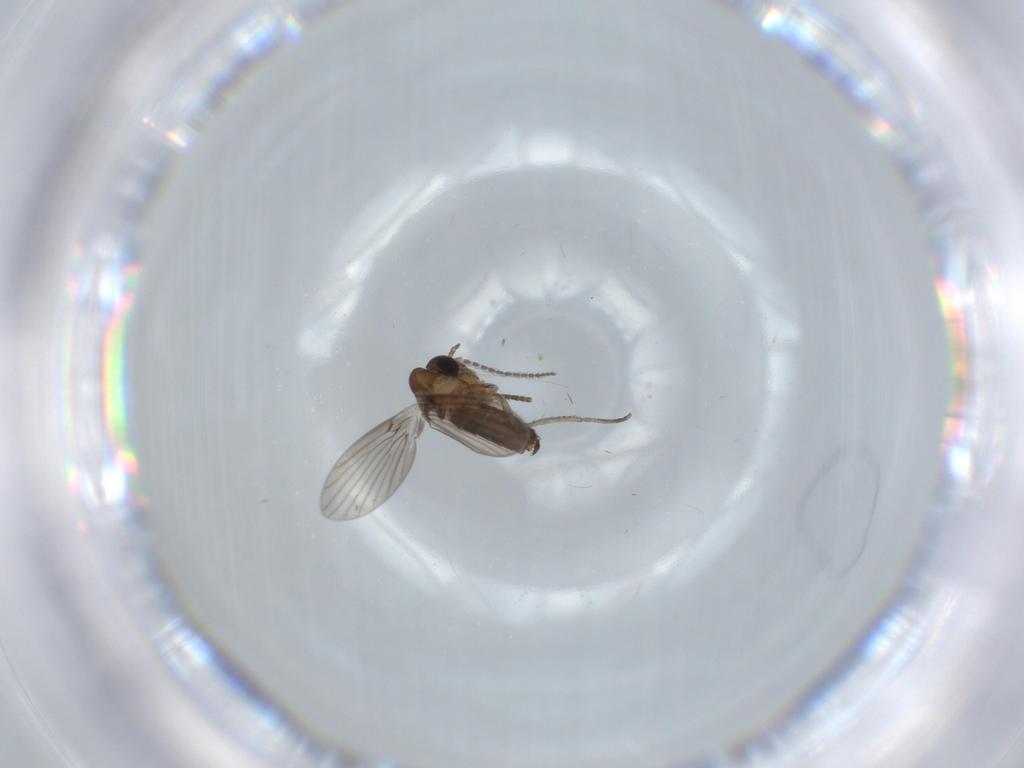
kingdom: Animalia
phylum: Arthropoda
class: Insecta
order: Diptera
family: Psychodidae
